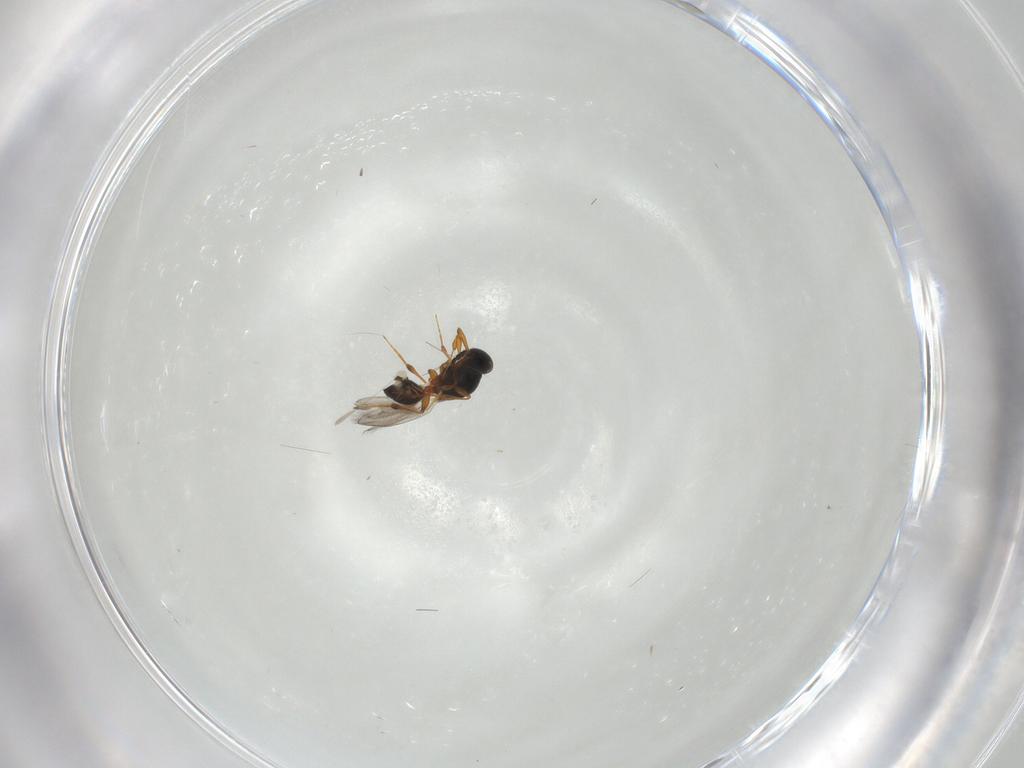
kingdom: Animalia
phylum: Arthropoda
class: Insecta
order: Hymenoptera
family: Platygastridae
